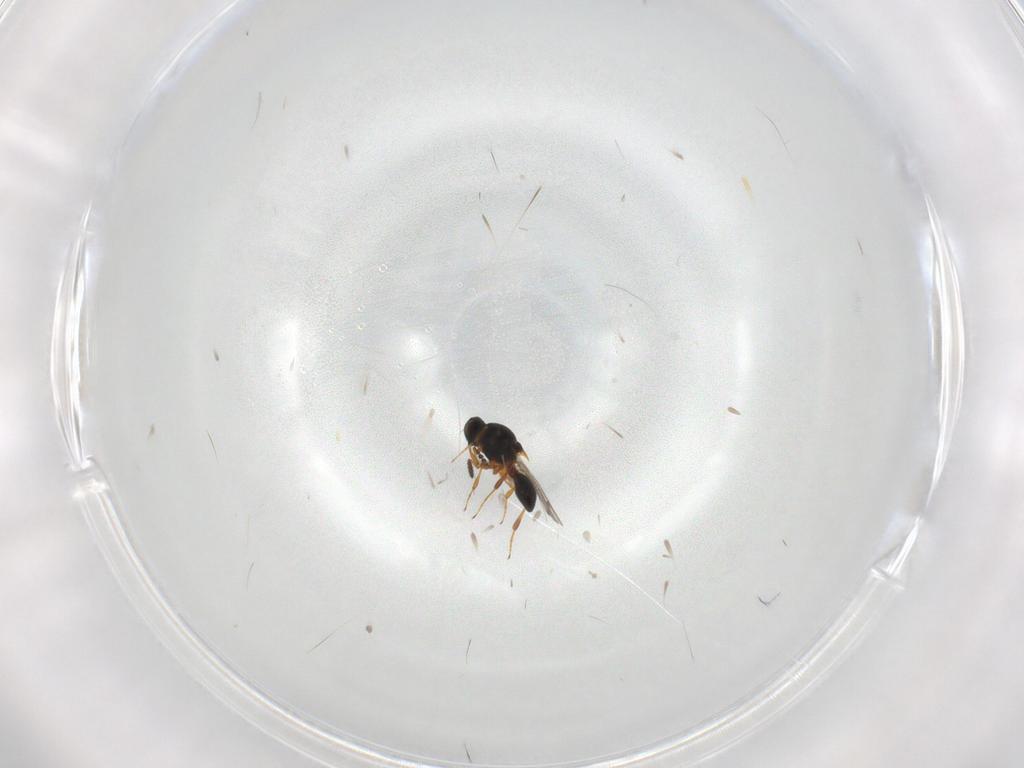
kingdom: Animalia
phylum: Arthropoda
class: Insecta
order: Hymenoptera
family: Platygastridae
